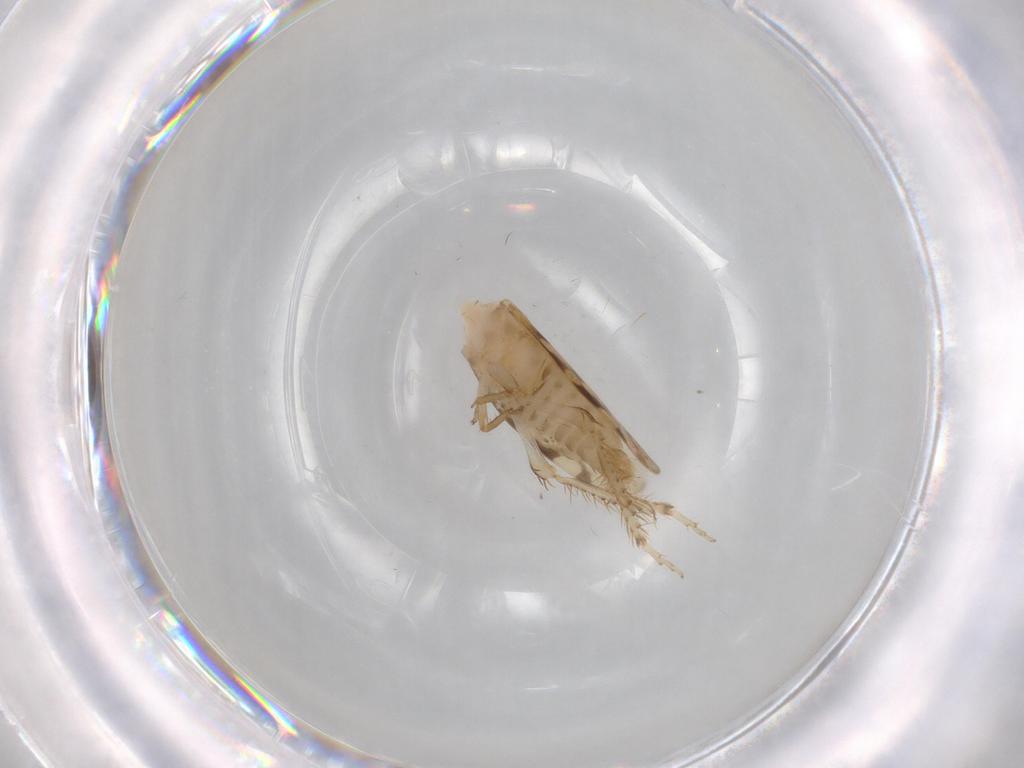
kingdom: Animalia
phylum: Arthropoda
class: Insecta
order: Hemiptera
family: Cicadellidae
